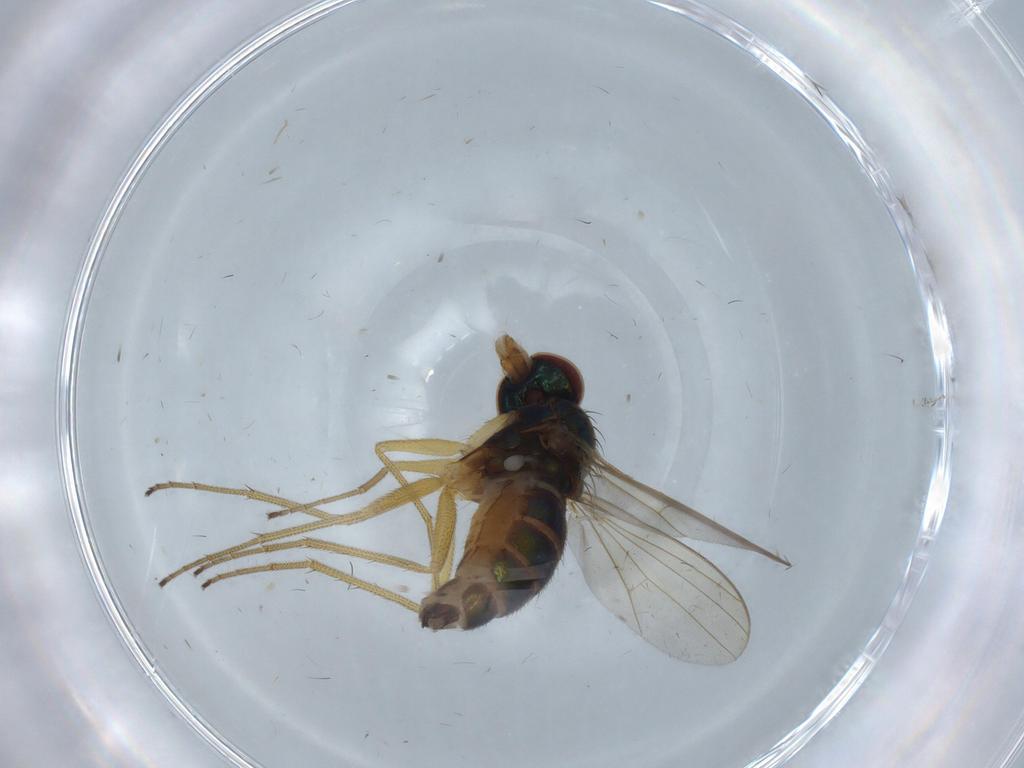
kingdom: Animalia
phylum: Arthropoda
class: Insecta
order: Diptera
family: Dolichopodidae
